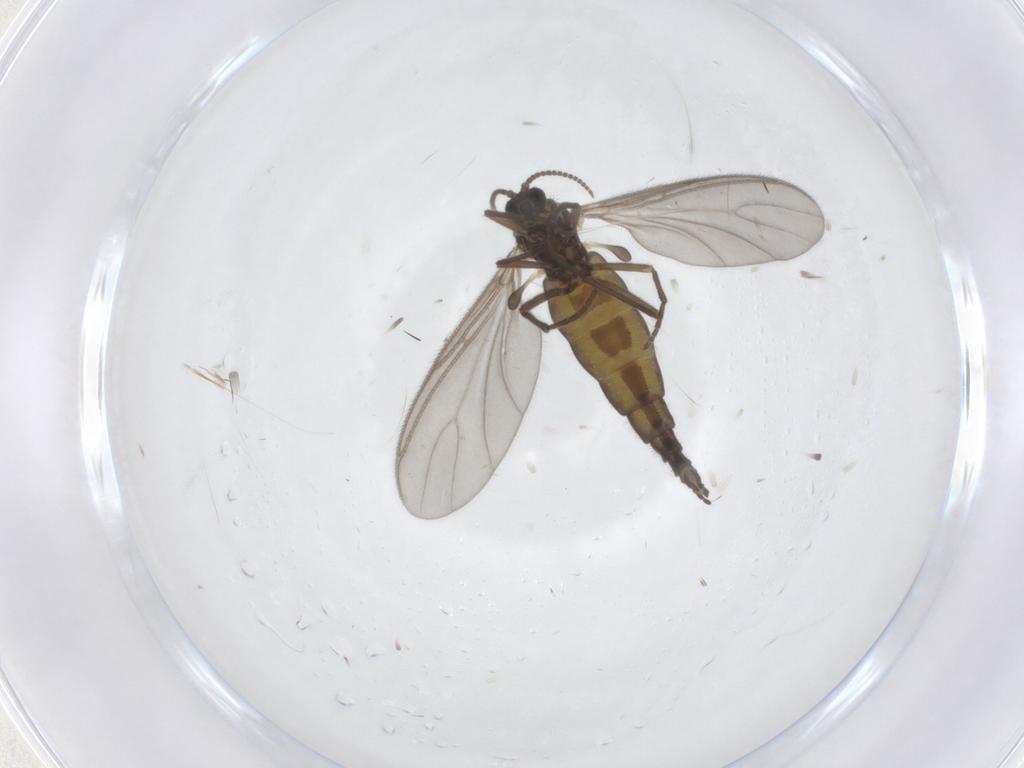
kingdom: Animalia
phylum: Arthropoda
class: Insecta
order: Diptera
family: Sciaridae
